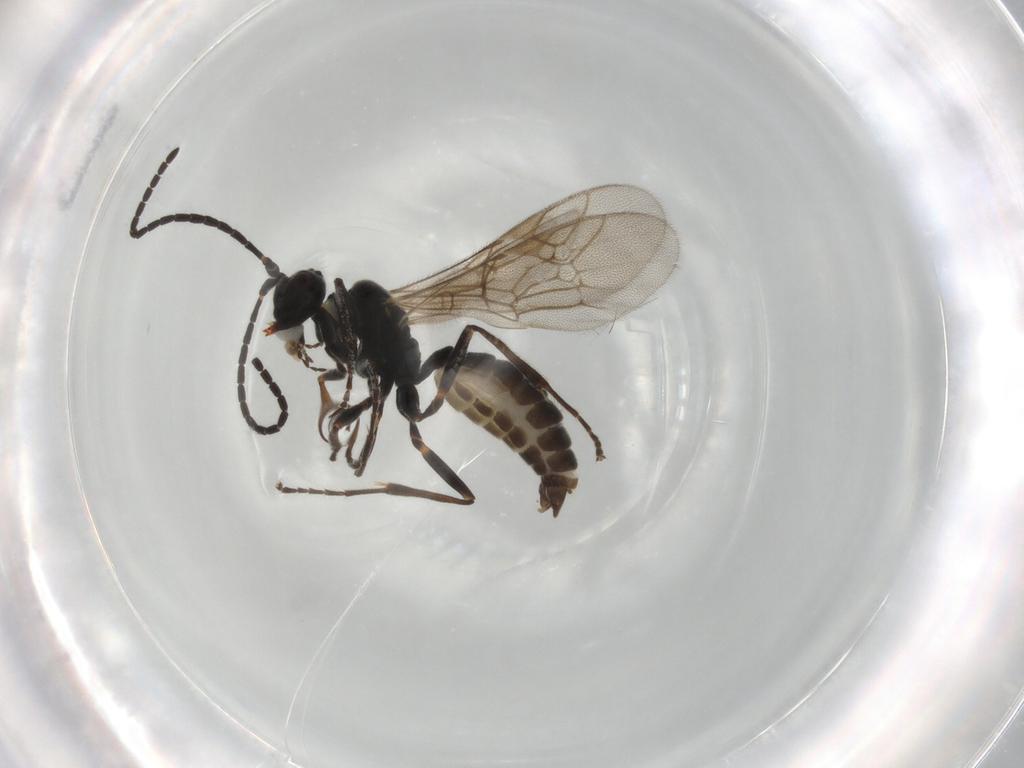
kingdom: Animalia
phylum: Arthropoda
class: Insecta
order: Hymenoptera
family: Ichneumonidae
